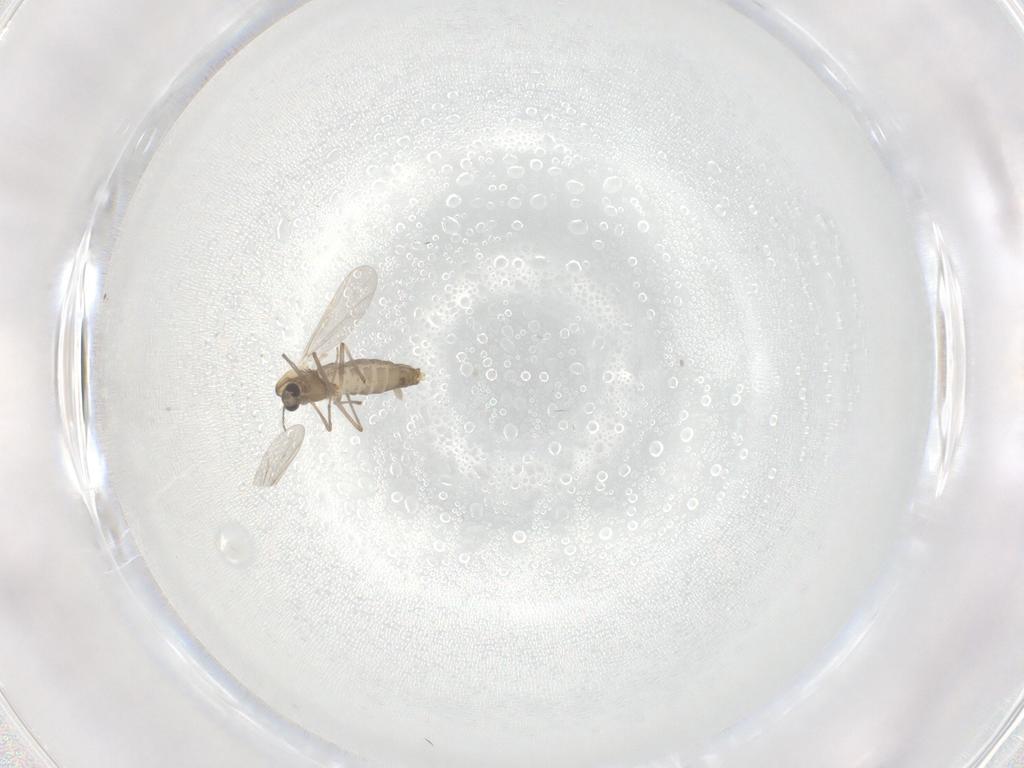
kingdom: Animalia
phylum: Arthropoda
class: Insecta
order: Diptera
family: Chironomidae
